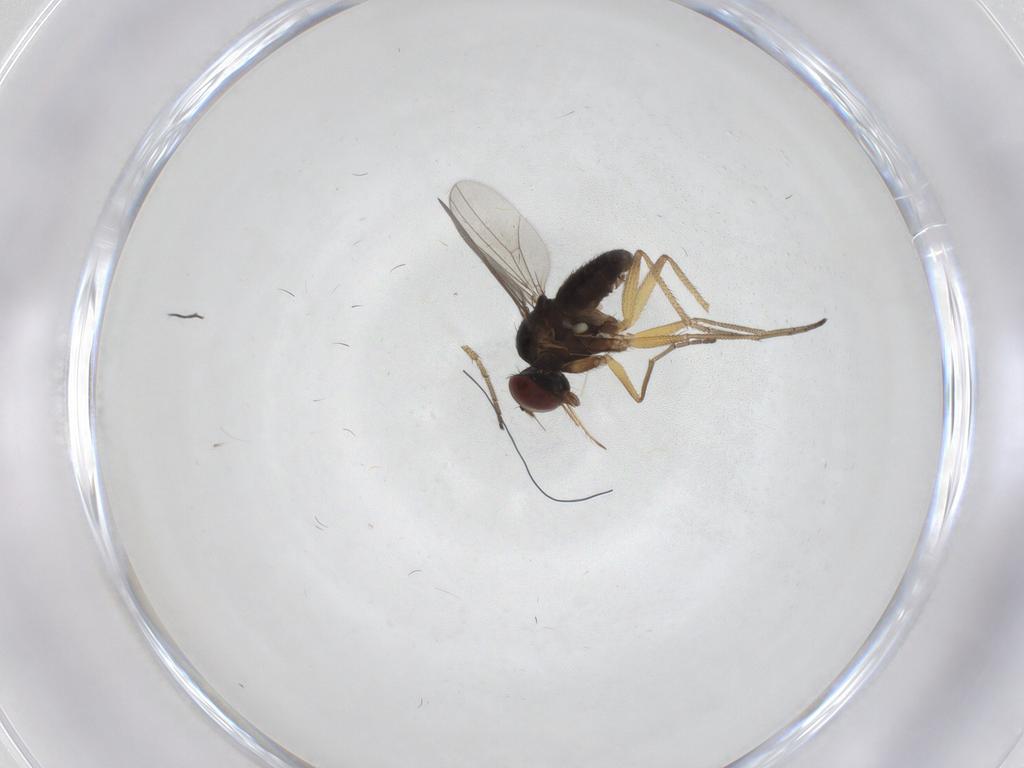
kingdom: Animalia
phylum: Arthropoda
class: Insecta
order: Diptera
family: Dolichopodidae
